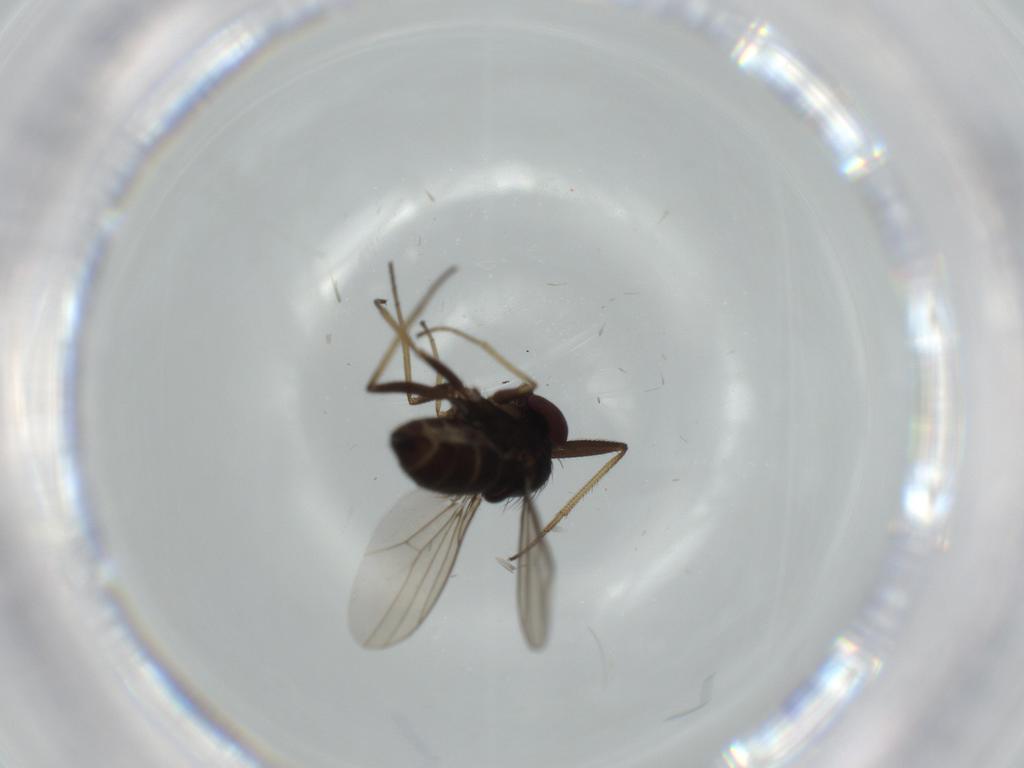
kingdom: Animalia
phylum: Arthropoda
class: Insecta
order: Diptera
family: Dolichopodidae
